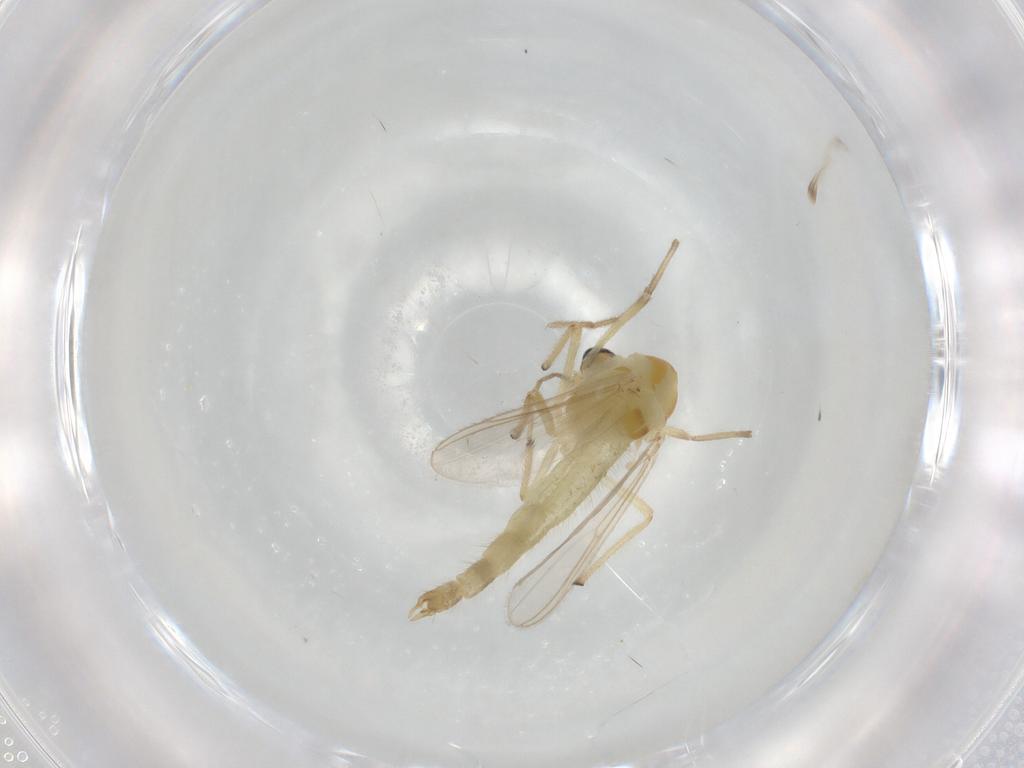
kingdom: Animalia
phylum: Arthropoda
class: Insecta
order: Diptera
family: Chironomidae
